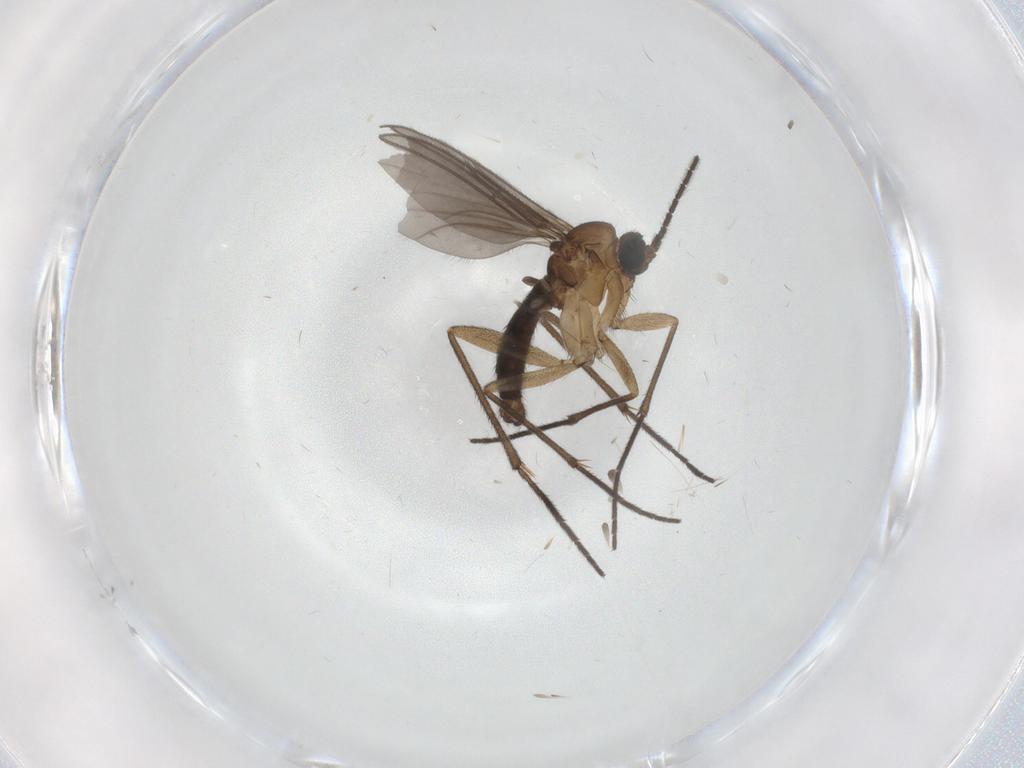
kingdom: Animalia
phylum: Arthropoda
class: Insecta
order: Diptera
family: Sciaridae
